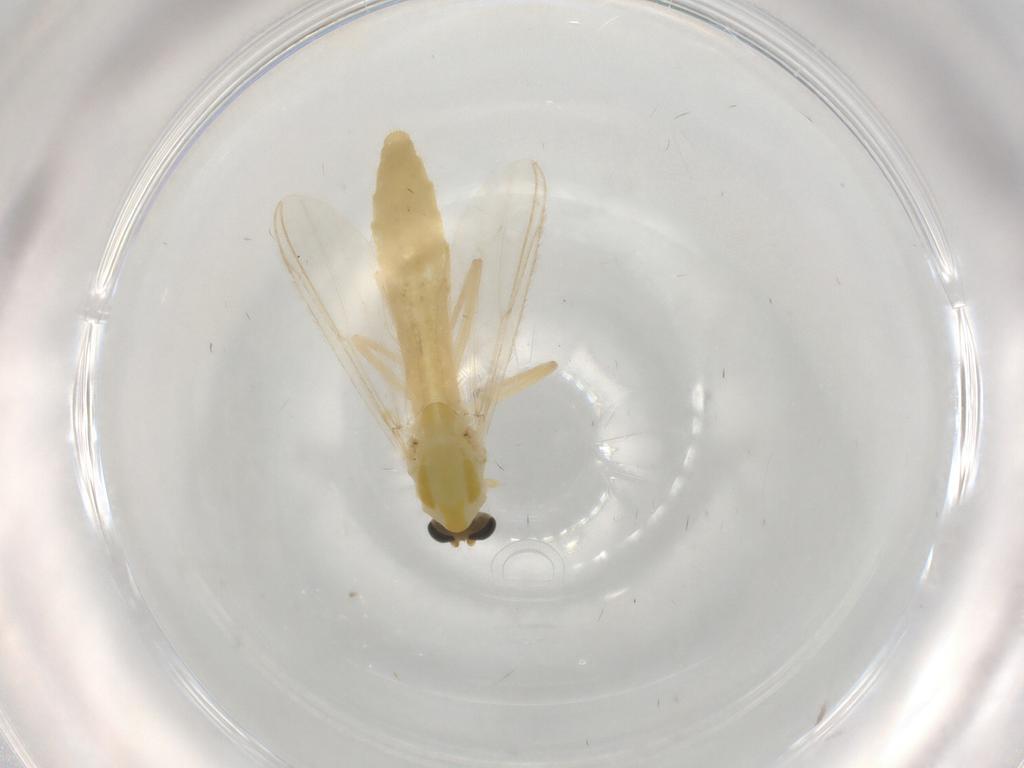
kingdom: Animalia
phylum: Arthropoda
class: Insecta
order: Diptera
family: Chironomidae
